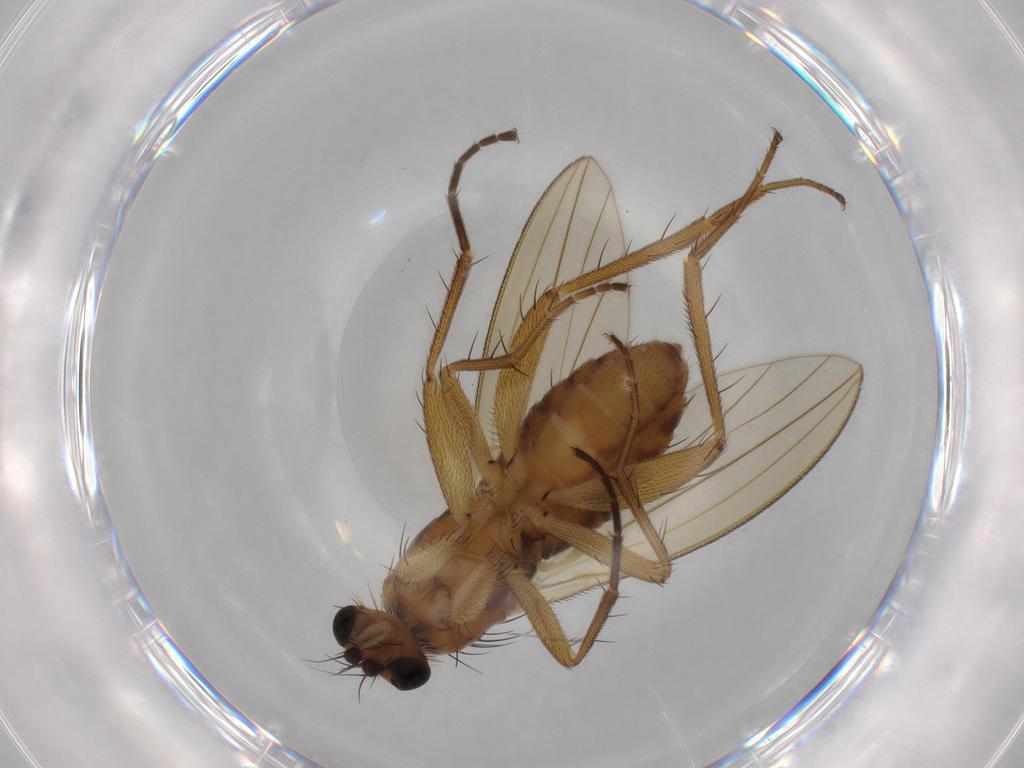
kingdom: Animalia
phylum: Arthropoda
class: Insecta
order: Diptera
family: Lonchopteridae
